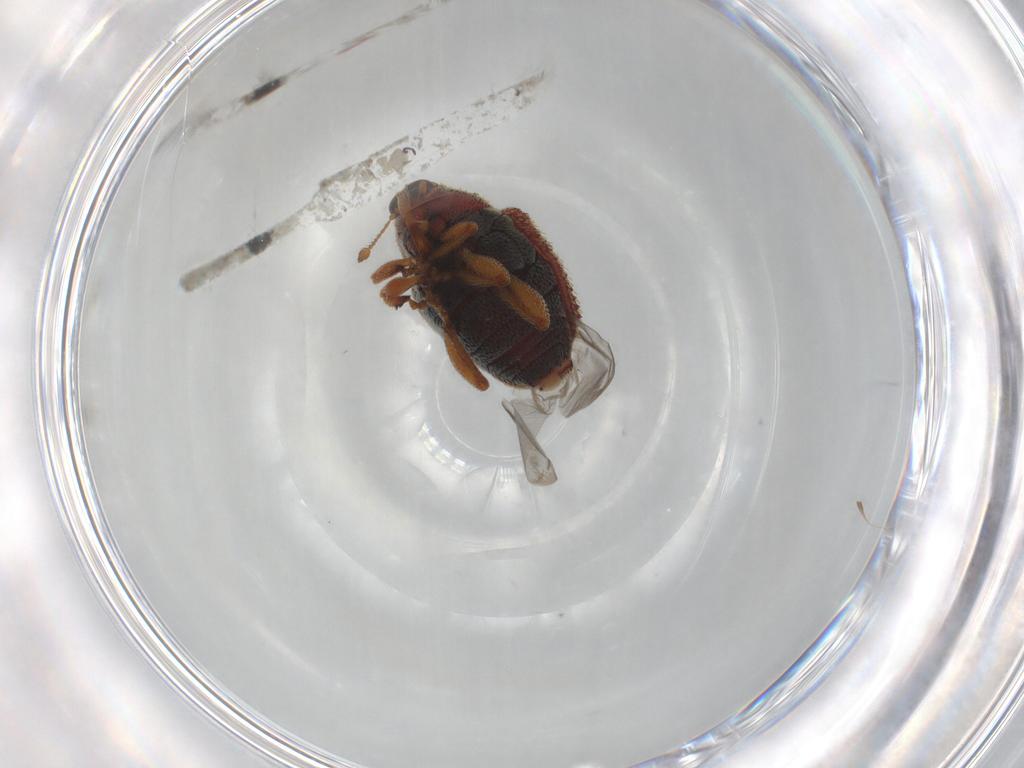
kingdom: Animalia
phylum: Arthropoda
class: Insecta
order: Coleoptera
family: Curculionidae
